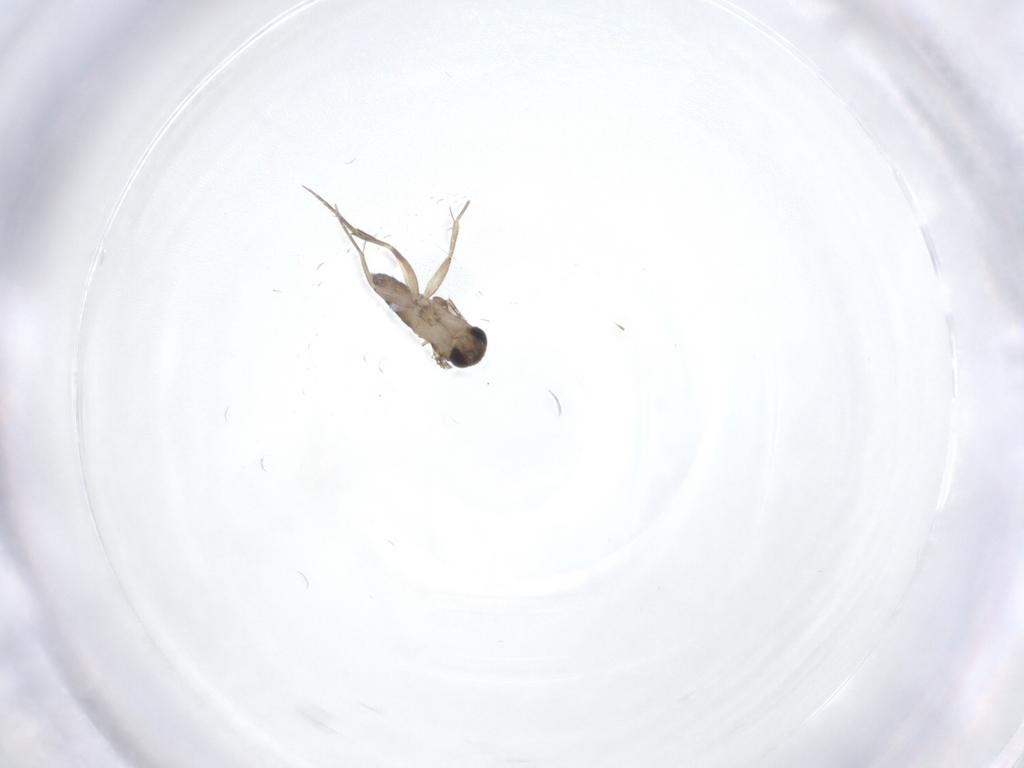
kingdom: Animalia
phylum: Arthropoda
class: Insecta
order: Diptera
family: Phoridae
